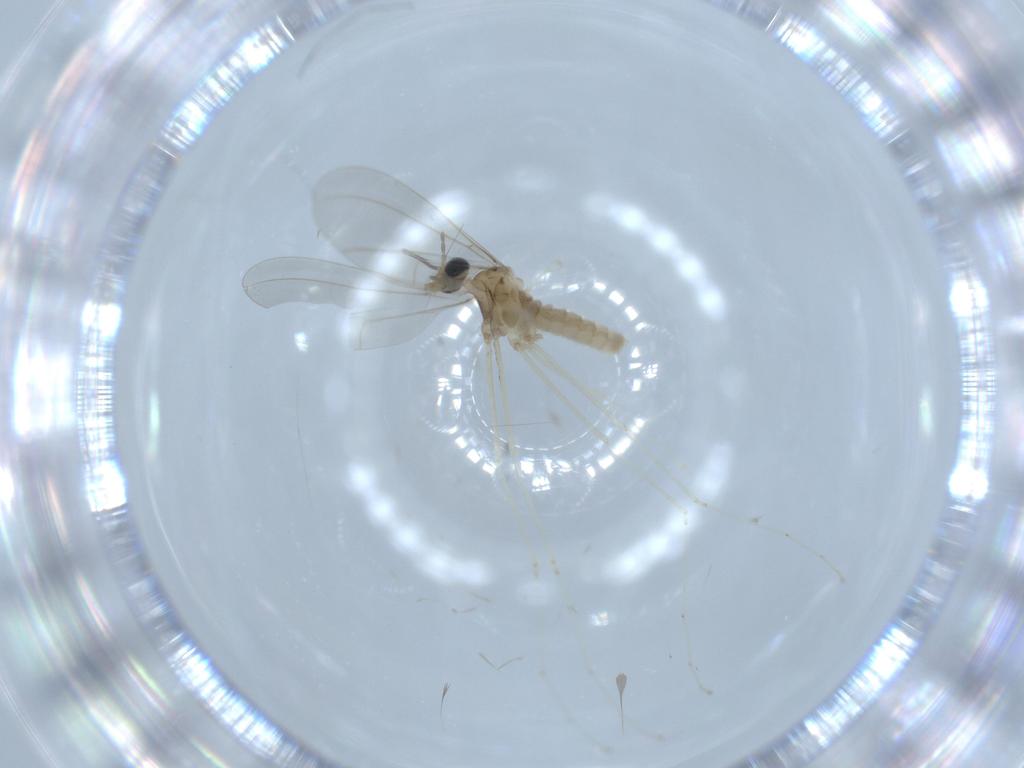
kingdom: Animalia
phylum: Arthropoda
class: Insecta
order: Diptera
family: Cecidomyiidae
